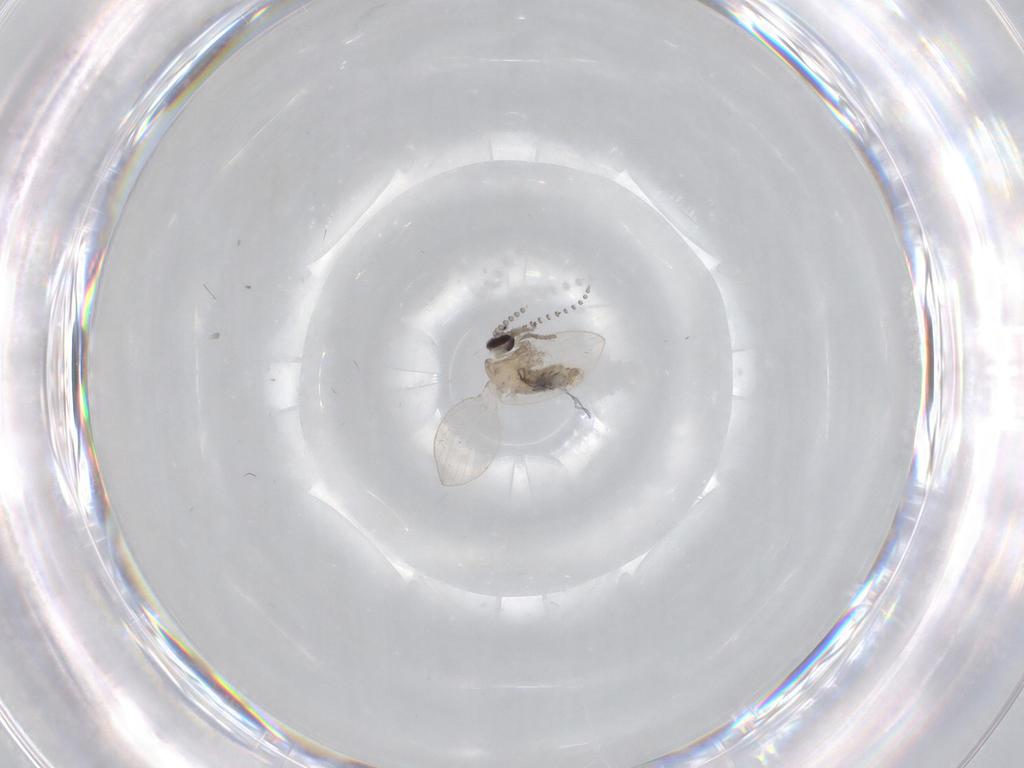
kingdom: Animalia
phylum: Arthropoda
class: Insecta
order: Diptera
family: Psychodidae
